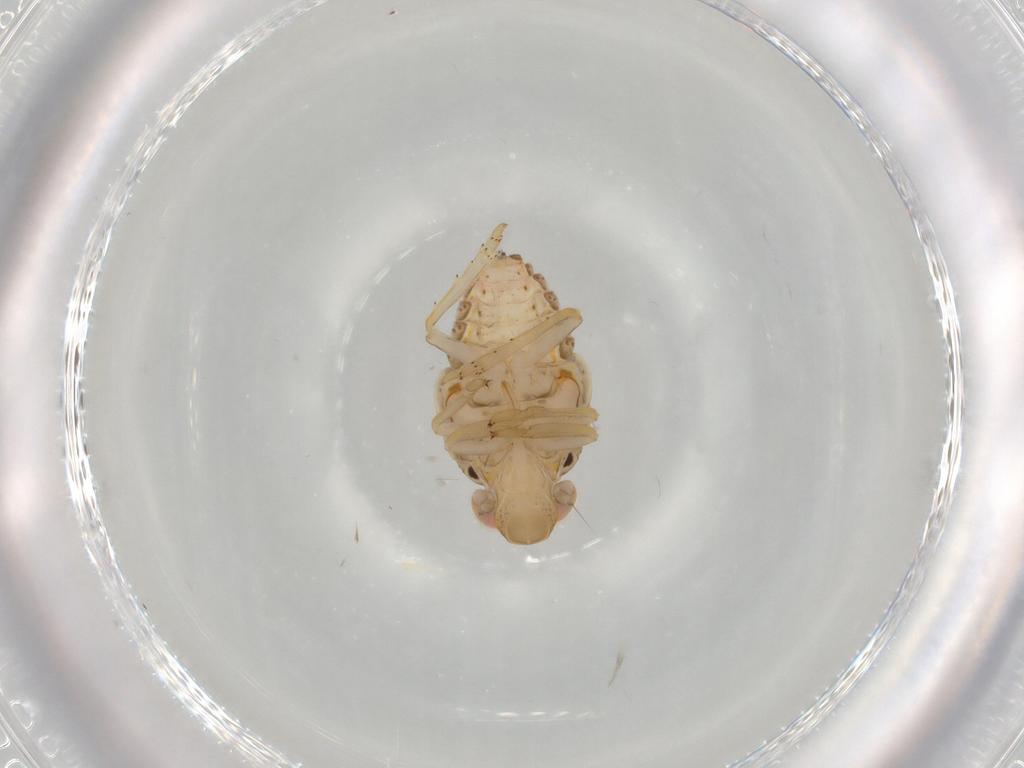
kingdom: Animalia
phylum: Arthropoda
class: Insecta
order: Hemiptera
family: Issidae
